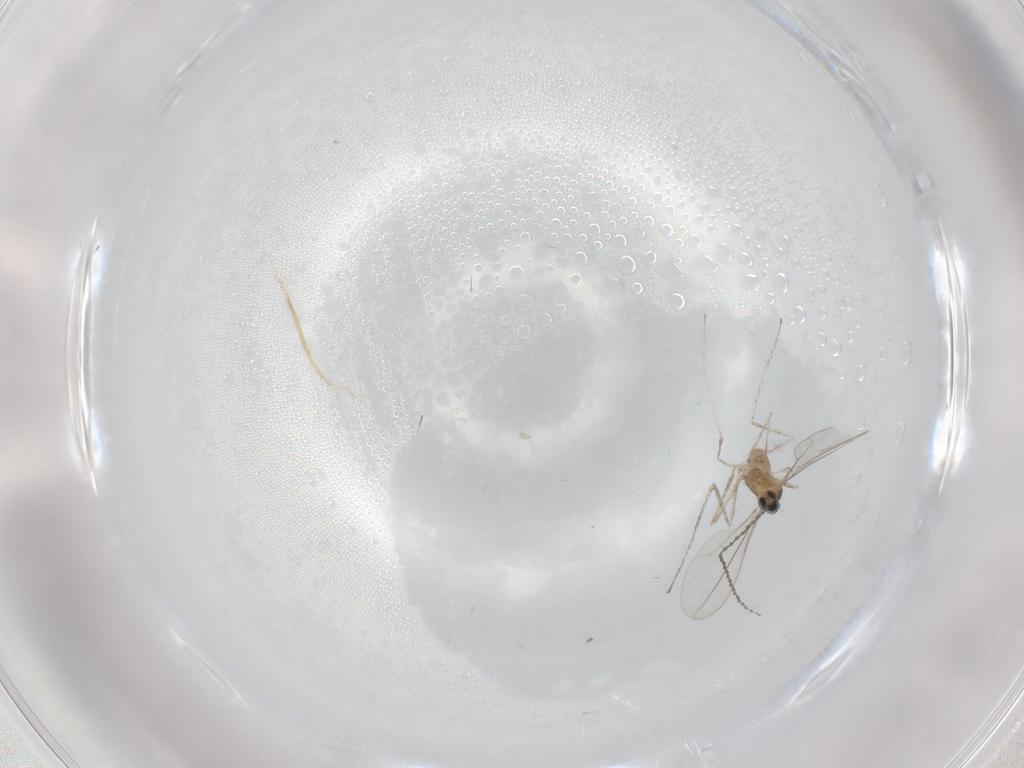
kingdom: Animalia
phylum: Arthropoda
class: Insecta
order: Diptera
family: Cecidomyiidae
